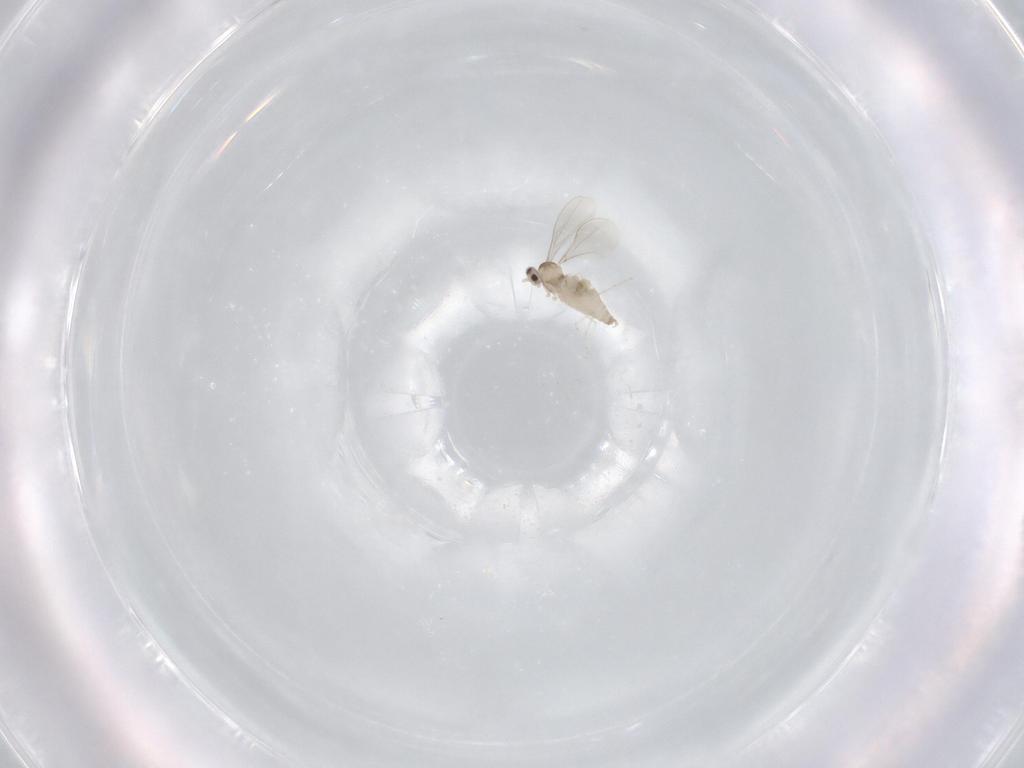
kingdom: Animalia
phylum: Arthropoda
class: Insecta
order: Diptera
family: Cecidomyiidae
